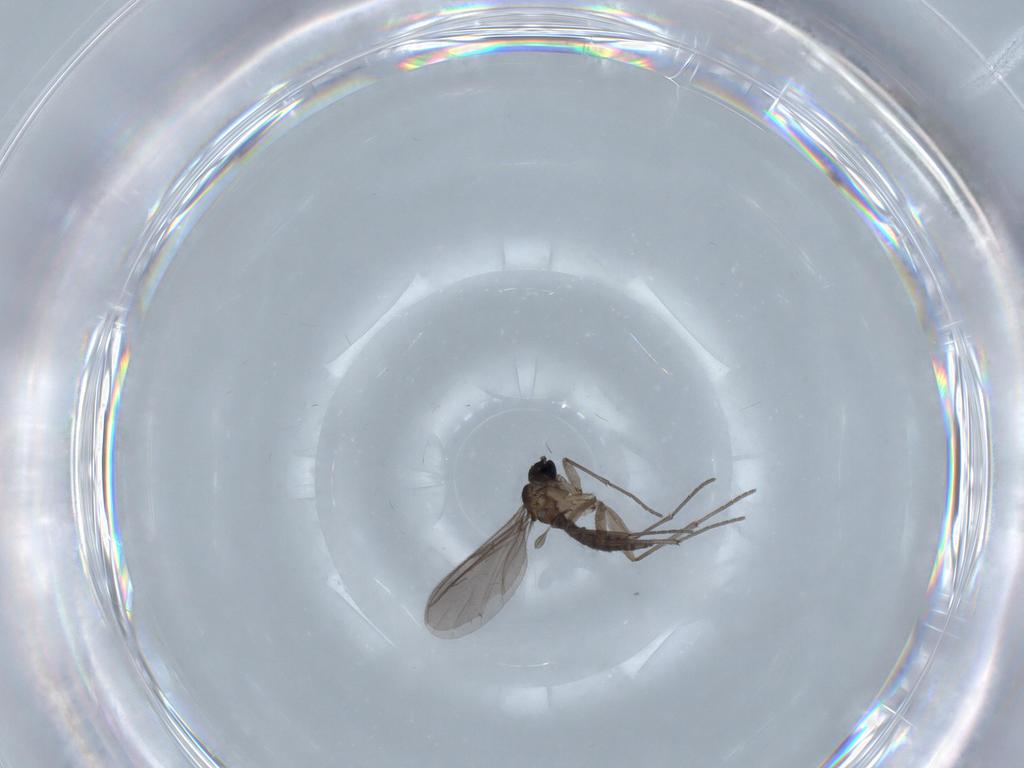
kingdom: Animalia
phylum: Arthropoda
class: Insecta
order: Diptera
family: Sciaridae
